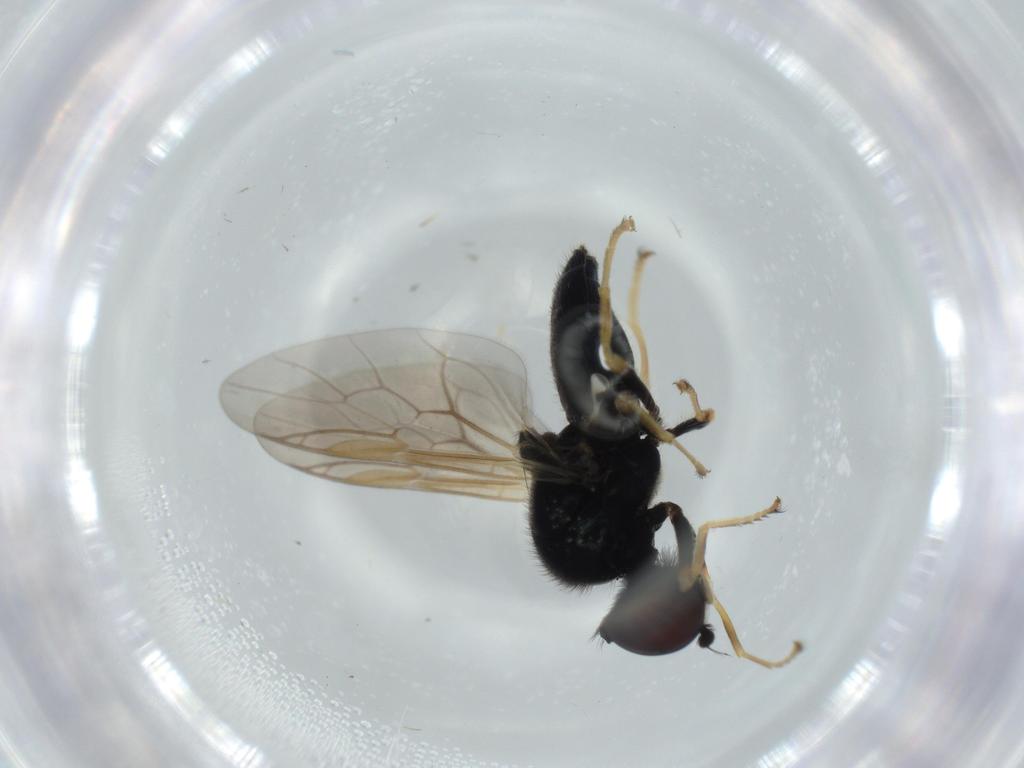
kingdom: Animalia
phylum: Arthropoda
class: Insecta
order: Diptera
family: Stratiomyidae
